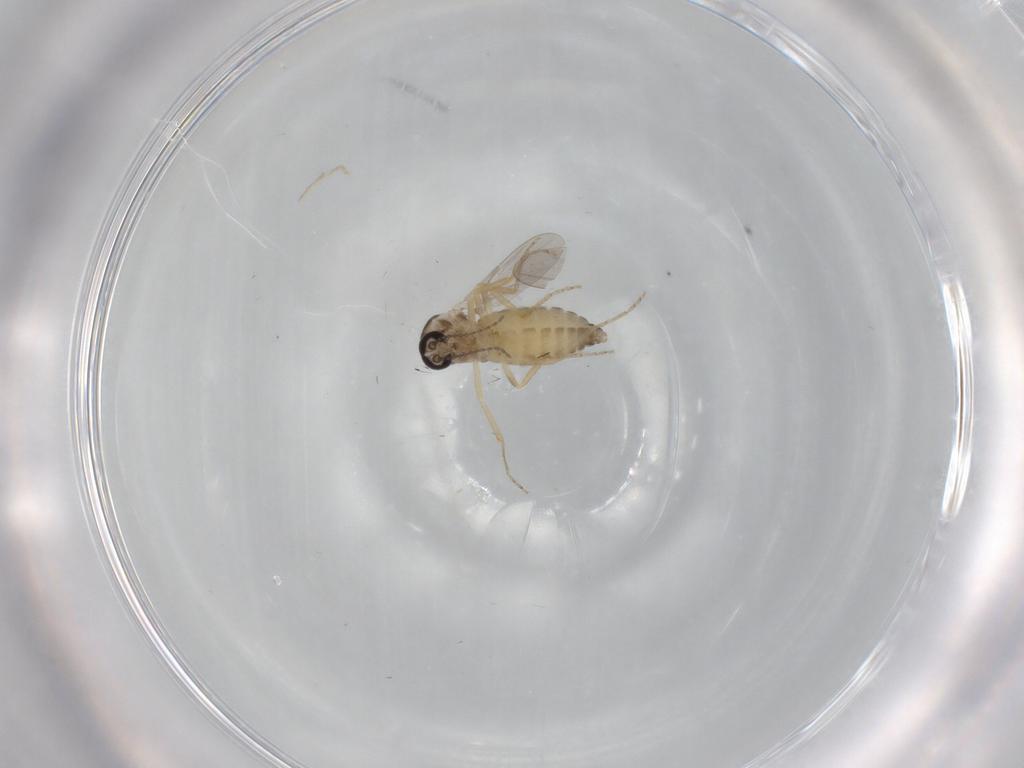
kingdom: Animalia
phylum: Arthropoda
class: Insecta
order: Diptera
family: Ceratopogonidae
